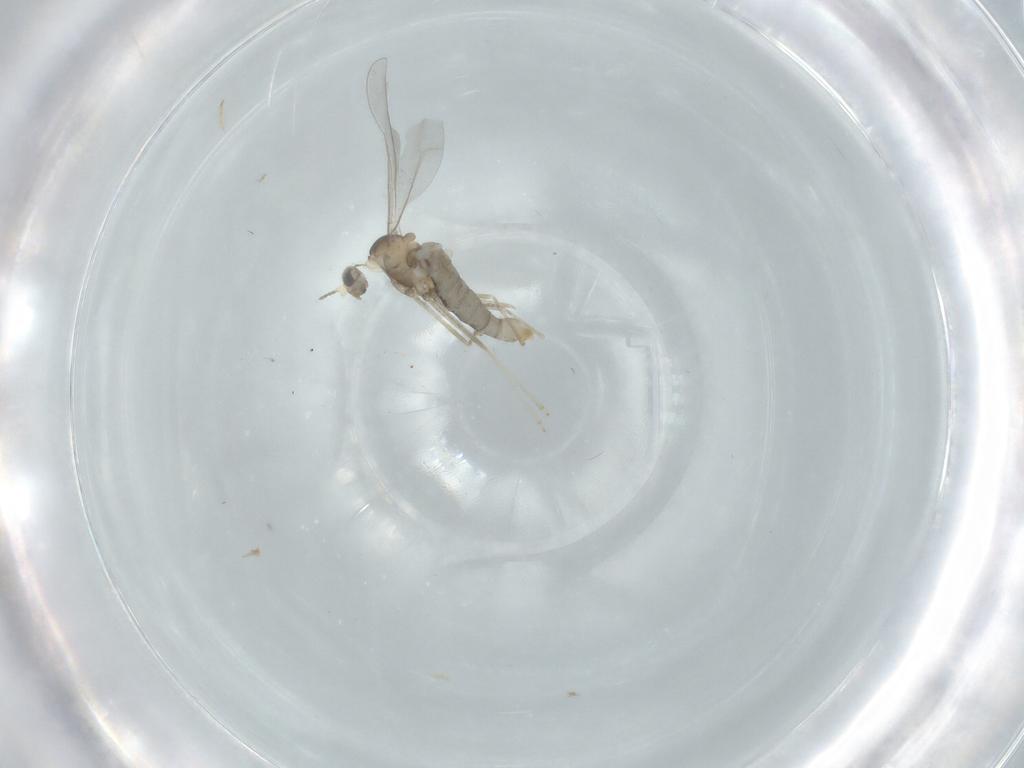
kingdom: Animalia
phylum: Arthropoda
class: Insecta
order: Diptera
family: Cecidomyiidae
